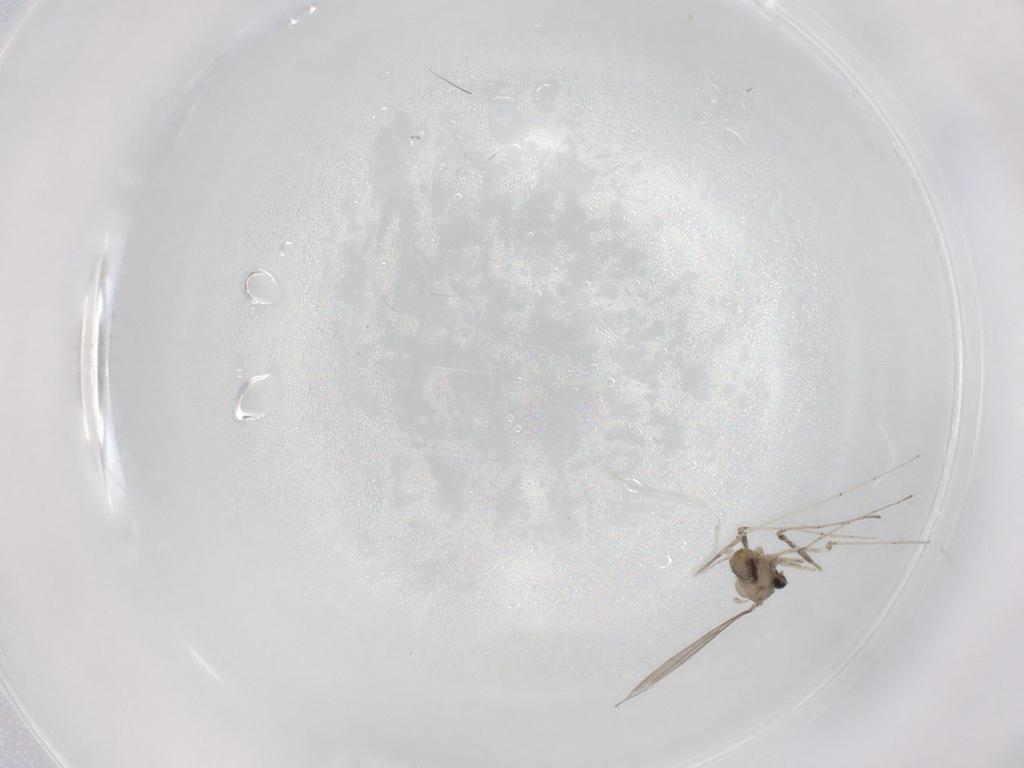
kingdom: Animalia
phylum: Arthropoda
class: Insecta
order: Diptera
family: Cecidomyiidae
